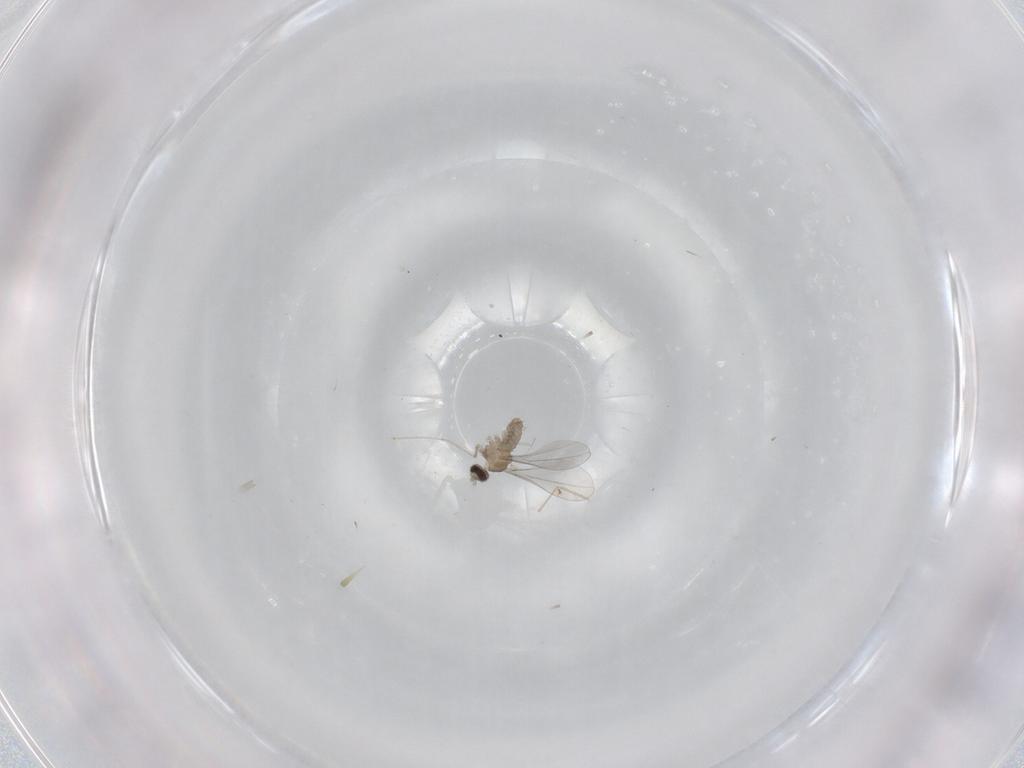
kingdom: Animalia
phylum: Arthropoda
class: Insecta
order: Diptera
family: Cecidomyiidae
